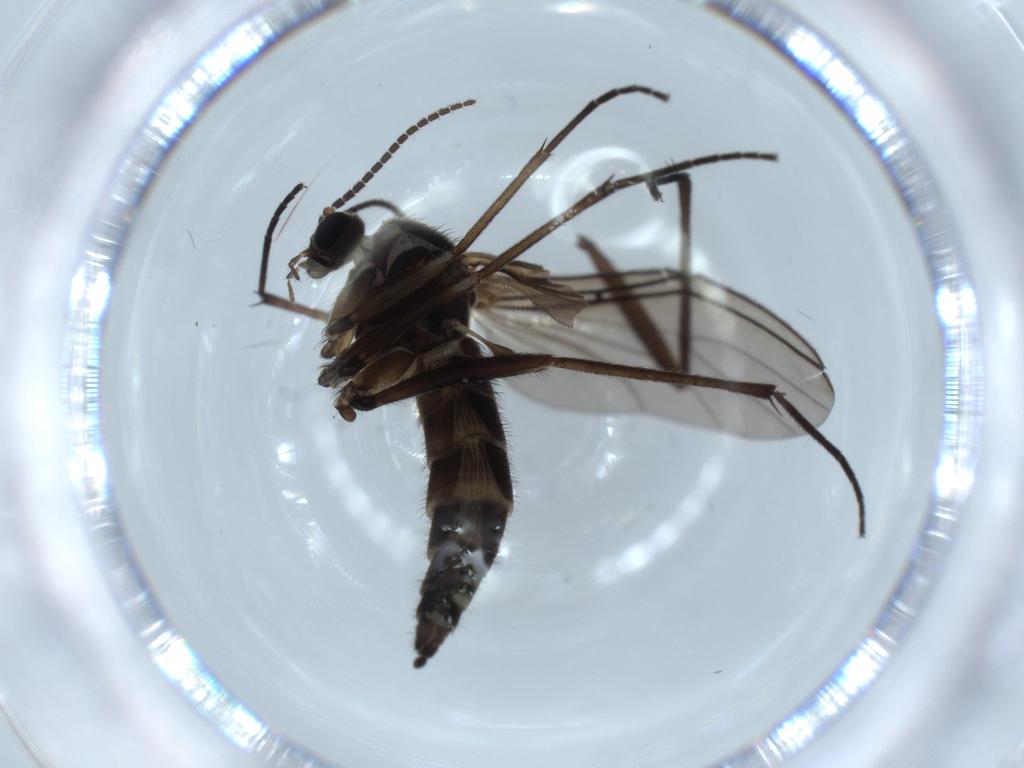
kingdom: Animalia
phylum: Arthropoda
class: Insecta
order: Diptera
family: Sciaridae
